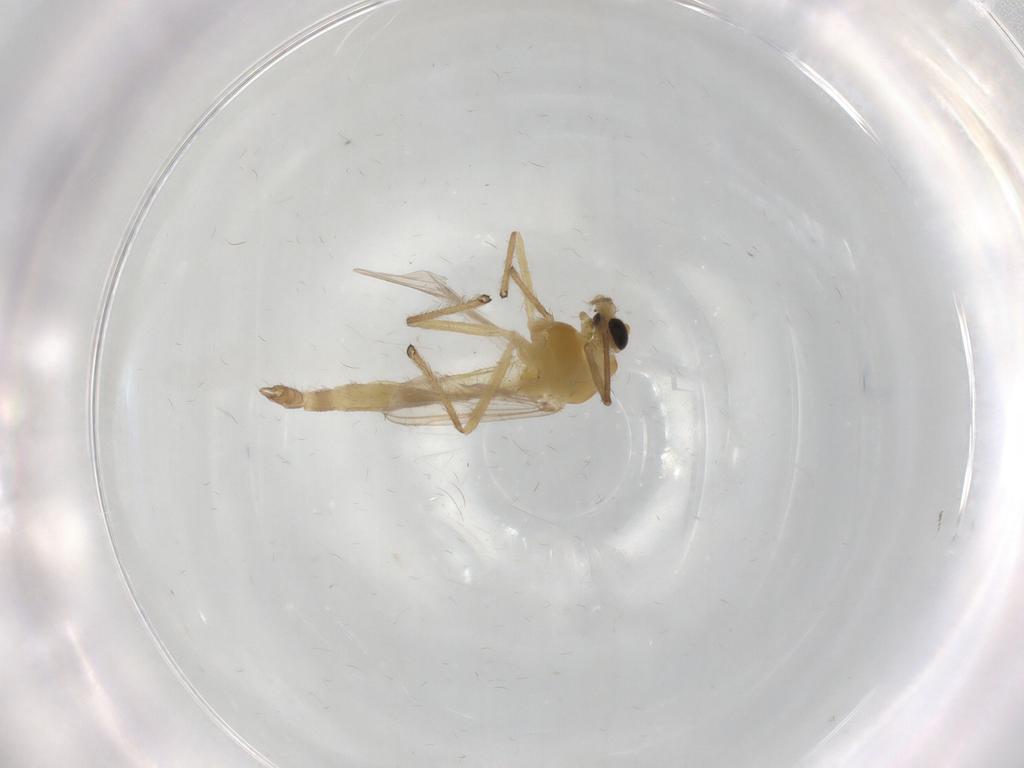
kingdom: Animalia
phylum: Arthropoda
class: Insecta
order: Diptera
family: Chironomidae
